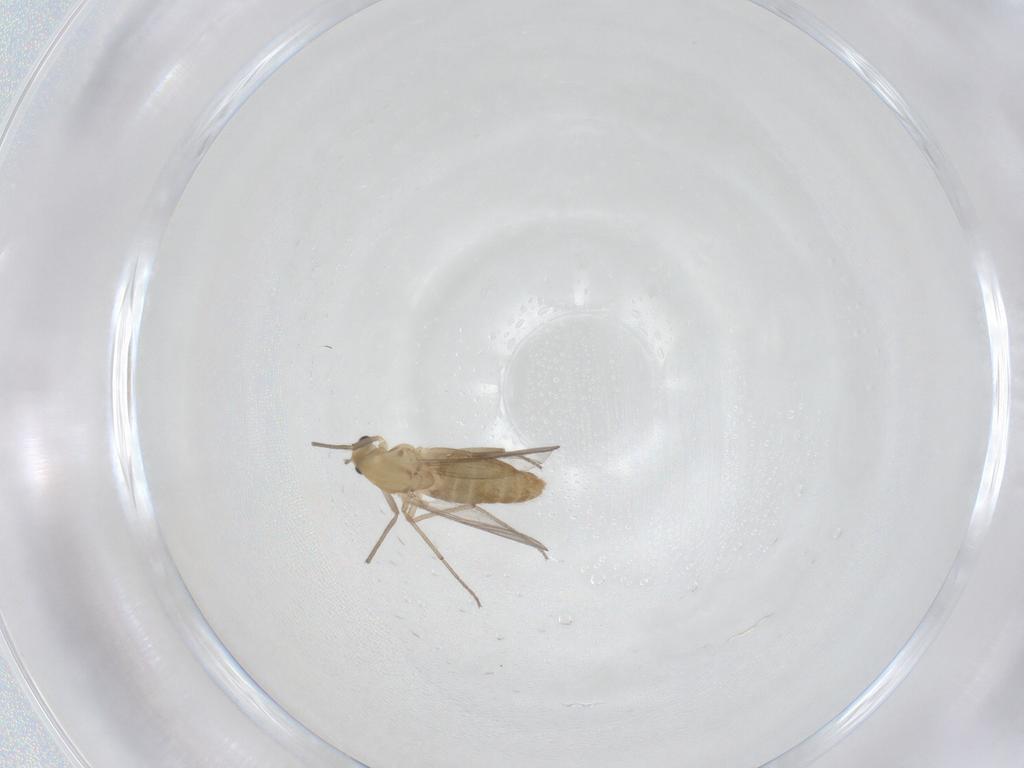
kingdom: Animalia
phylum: Arthropoda
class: Insecta
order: Diptera
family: Chironomidae
